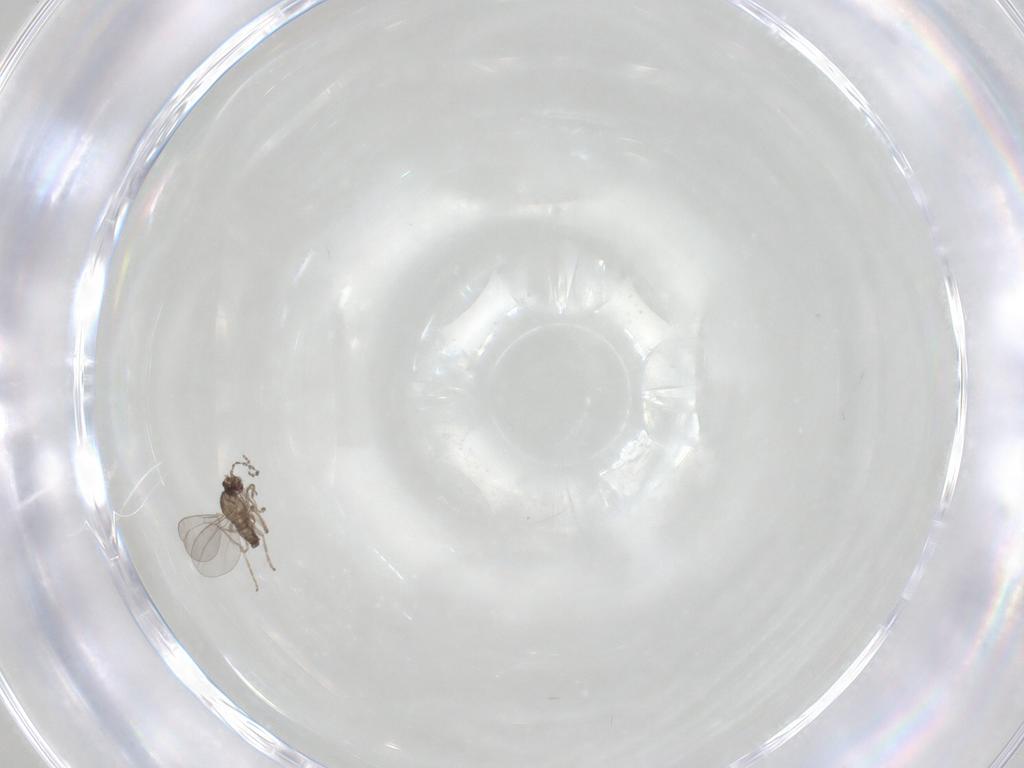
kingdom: Animalia
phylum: Arthropoda
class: Insecta
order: Diptera
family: Cecidomyiidae
